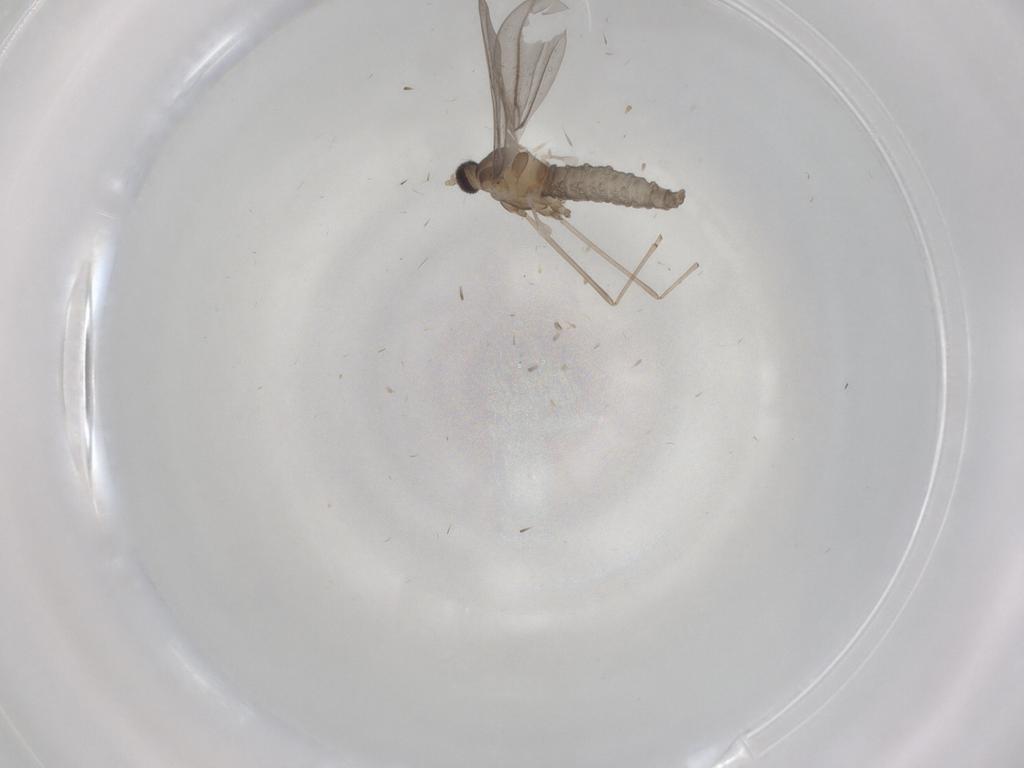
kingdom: Animalia
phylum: Arthropoda
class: Insecta
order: Diptera
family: Cecidomyiidae
